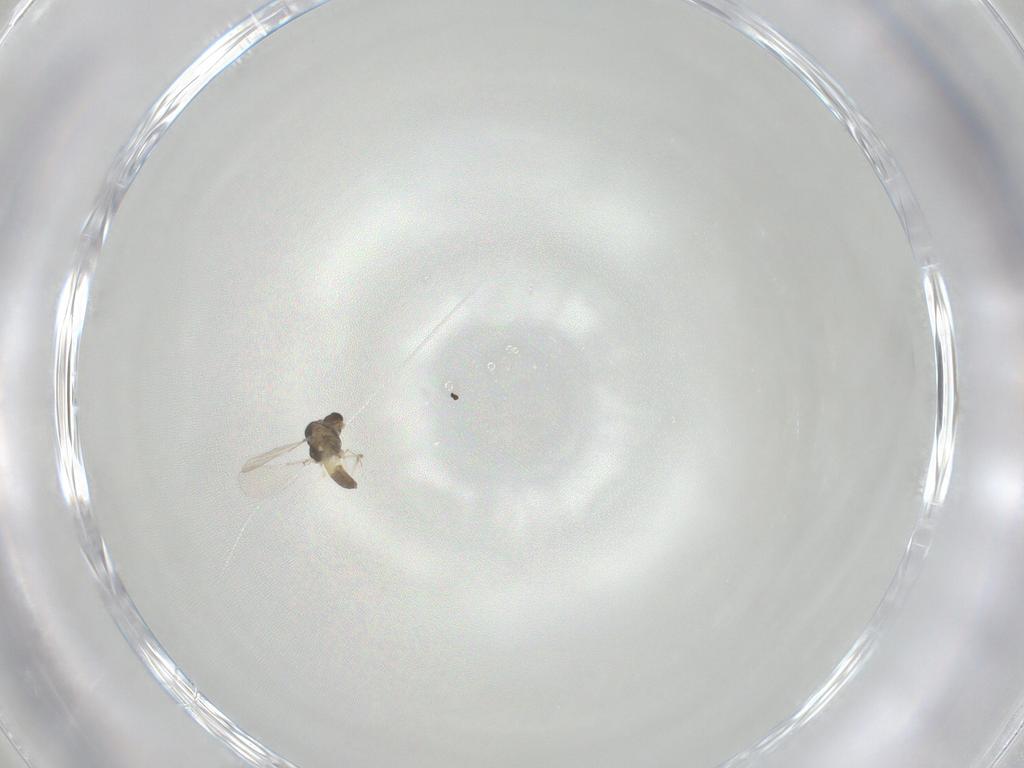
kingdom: Animalia
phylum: Arthropoda
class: Insecta
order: Diptera
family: Chironomidae
